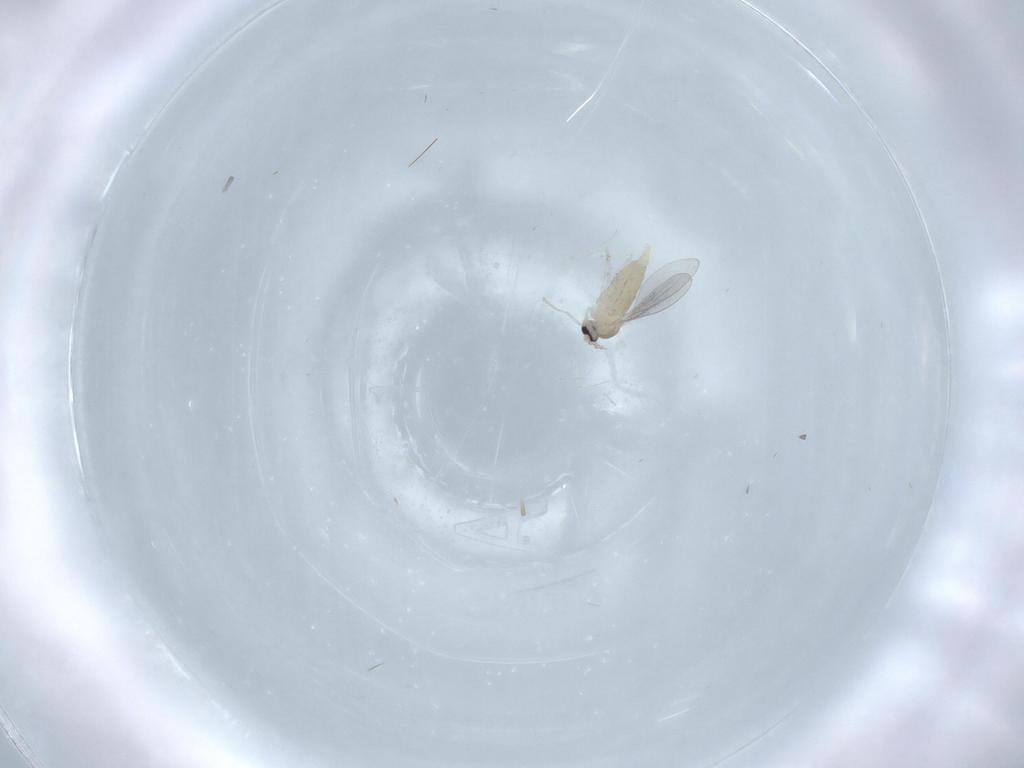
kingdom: Animalia
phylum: Arthropoda
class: Insecta
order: Diptera
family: Cecidomyiidae
